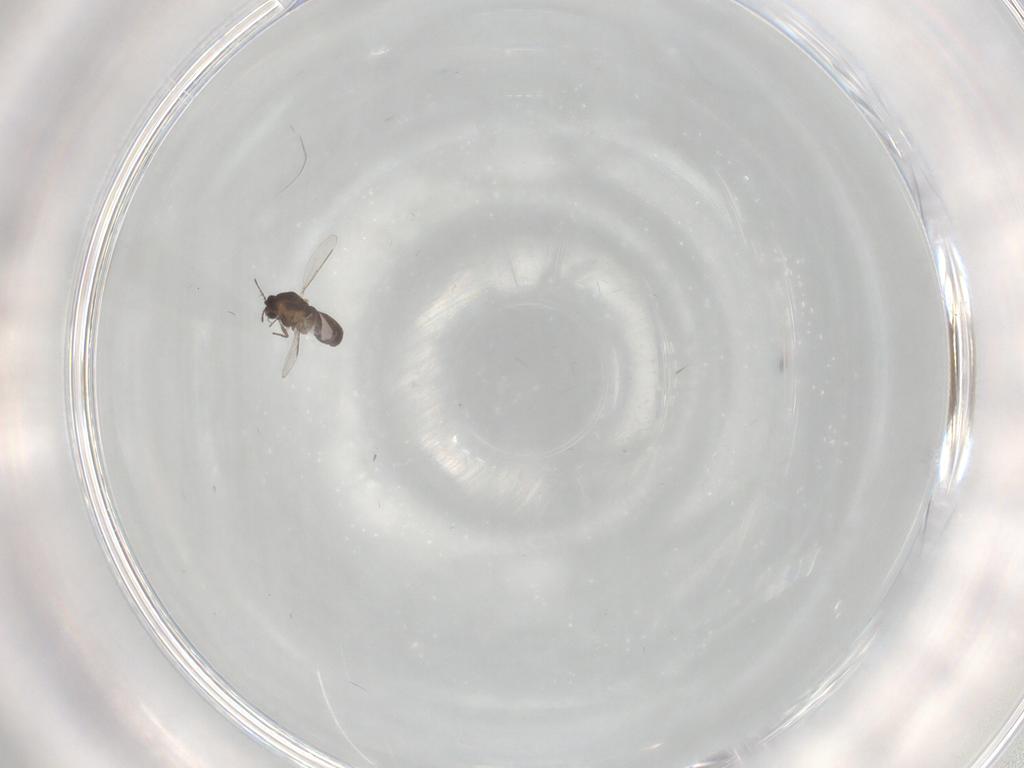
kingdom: Animalia
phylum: Arthropoda
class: Insecta
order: Diptera
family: Chironomidae
